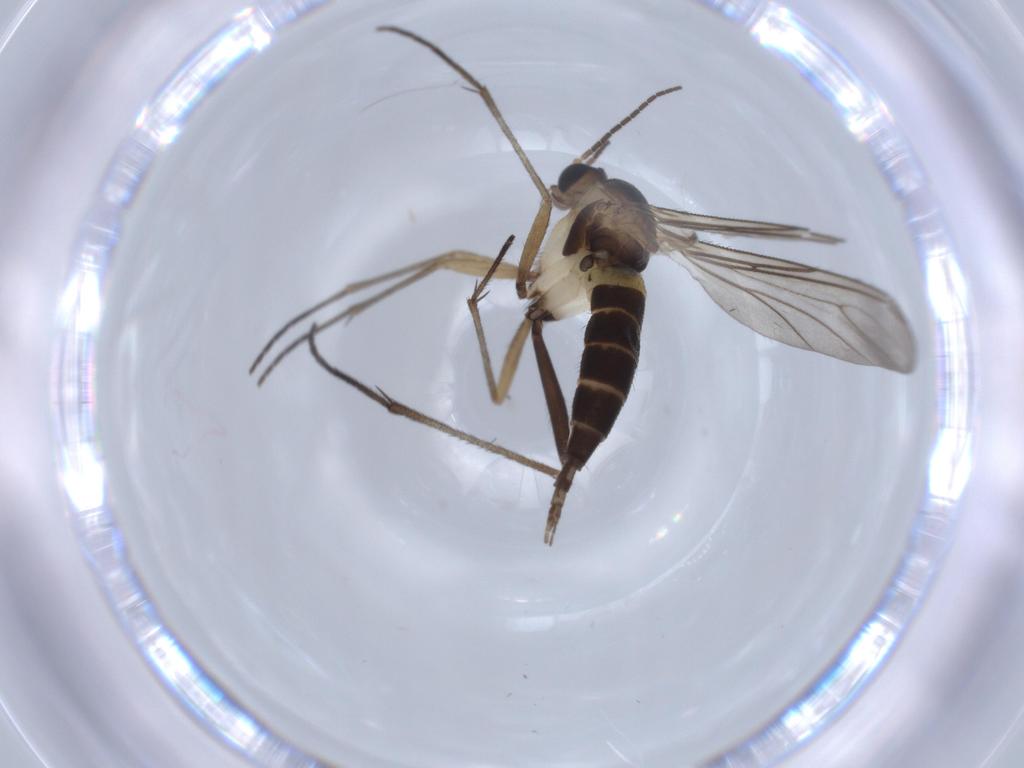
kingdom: Animalia
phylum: Arthropoda
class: Insecta
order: Diptera
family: Sciaridae
